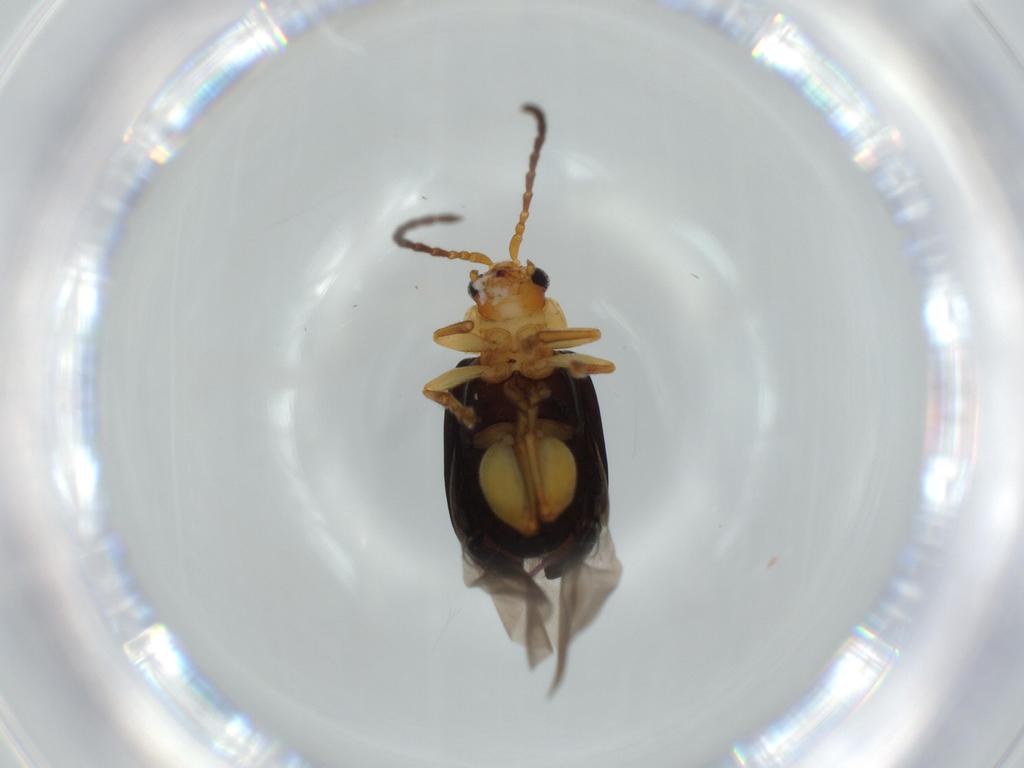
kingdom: Animalia
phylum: Arthropoda
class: Insecta
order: Coleoptera
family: Chrysomelidae
